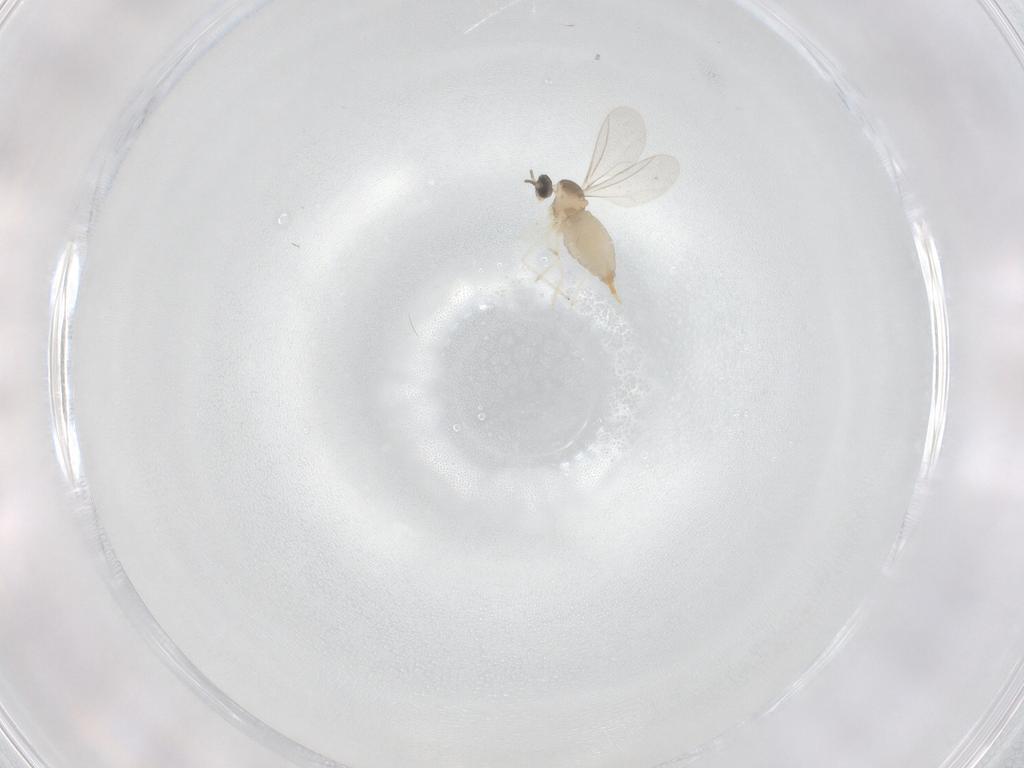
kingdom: Animalia
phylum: Arthropoda
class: Insecta
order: Diptera
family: Cecidomyiidae
